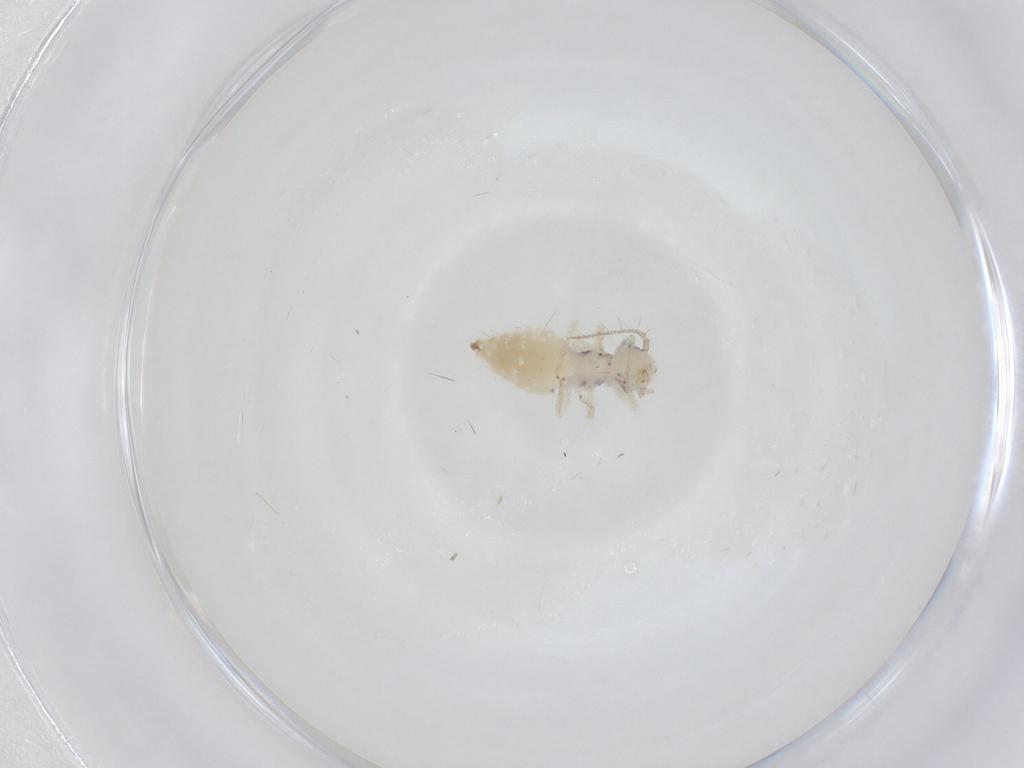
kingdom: Animalia
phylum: Arthropoda
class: Insecta
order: Psocodea
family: Pseudocaeciliidae
